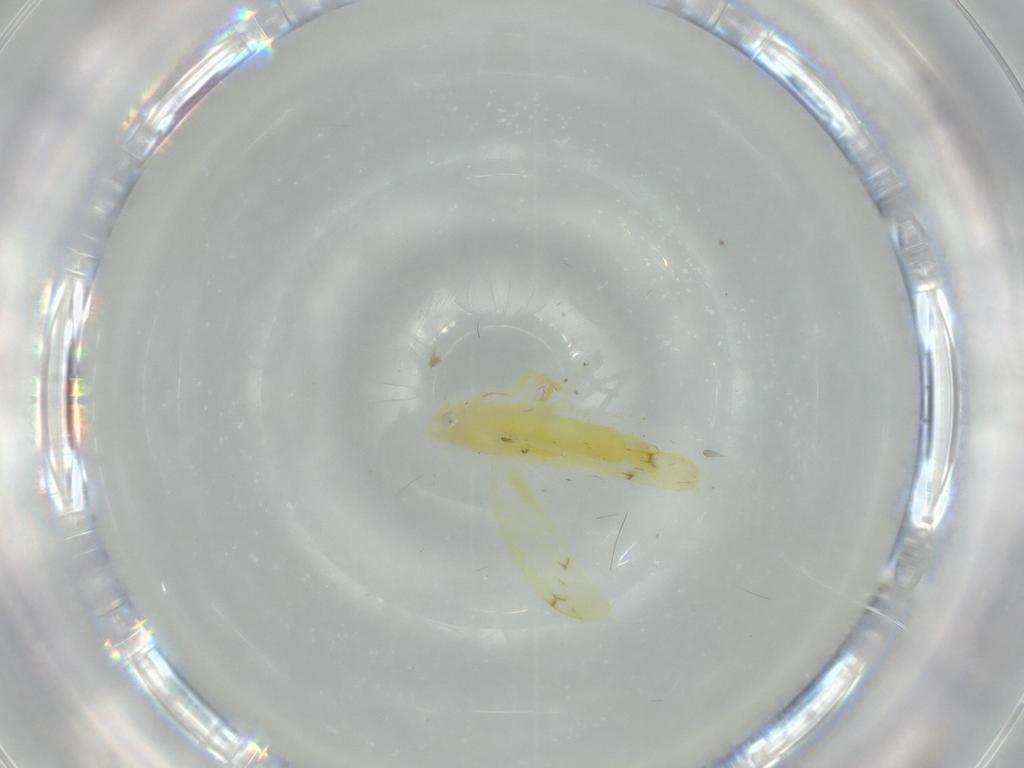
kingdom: Animalia
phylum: Arthropoda
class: Insecta
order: Hemiptera
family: Cicadellidae
